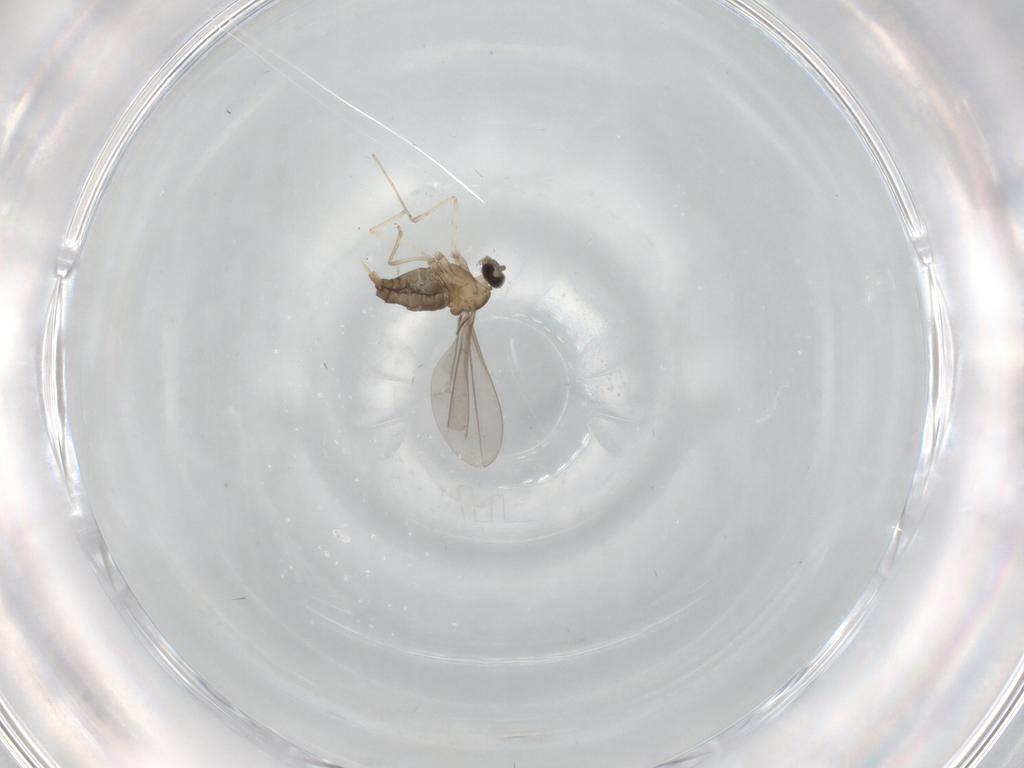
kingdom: Animalia
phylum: Arthropoda
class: Insecta
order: Diptera
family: Cecidomyiidae
